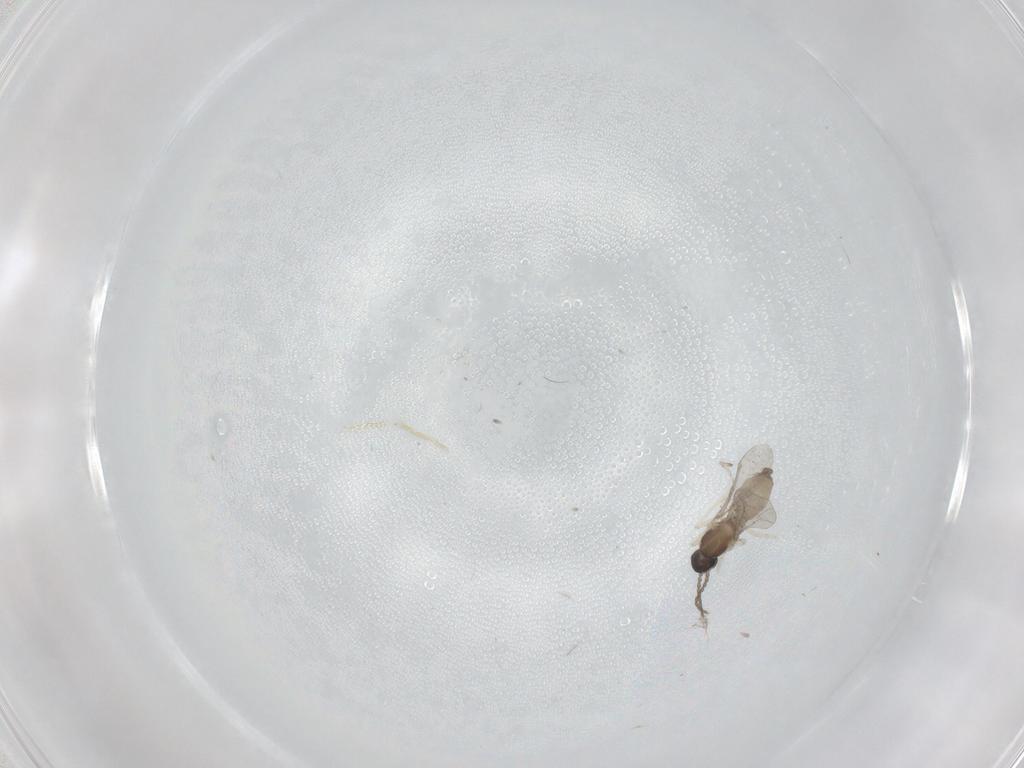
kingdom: Animalia
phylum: Arthropoda
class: Insecta
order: Diptera
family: Sciaridae
